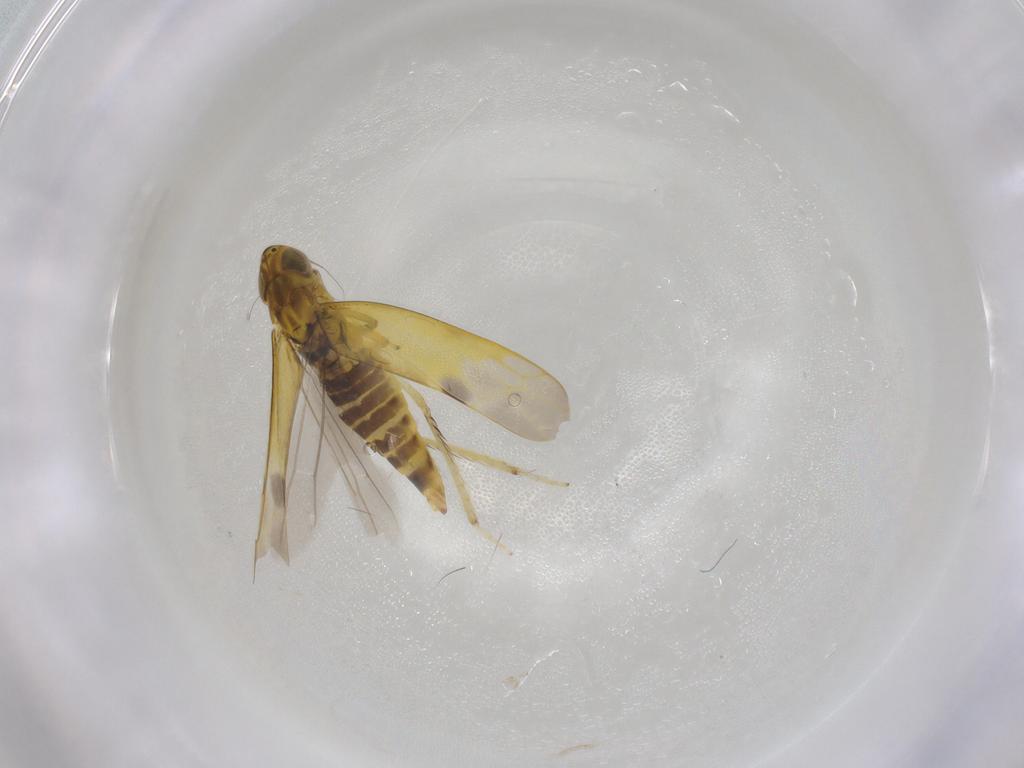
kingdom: Animalia
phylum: Arthropoda
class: Insecta
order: Hemiptera
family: Cicadellidae
